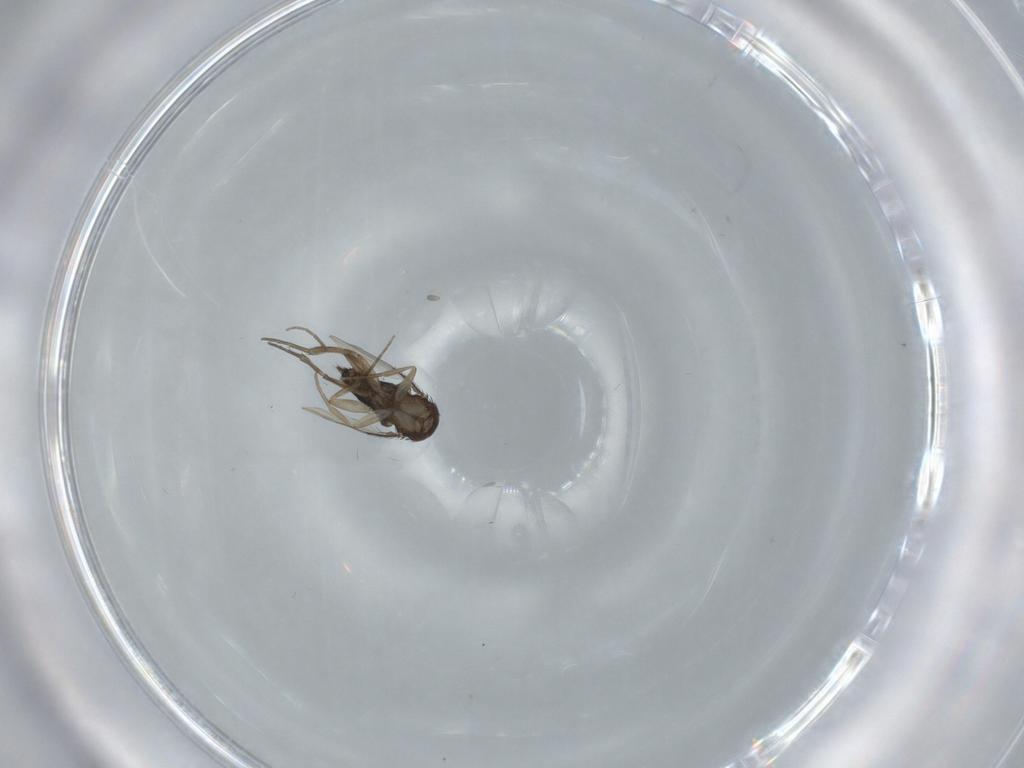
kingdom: Animalia
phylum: Arthropoda
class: Insecta
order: Diptera
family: Phoridae
